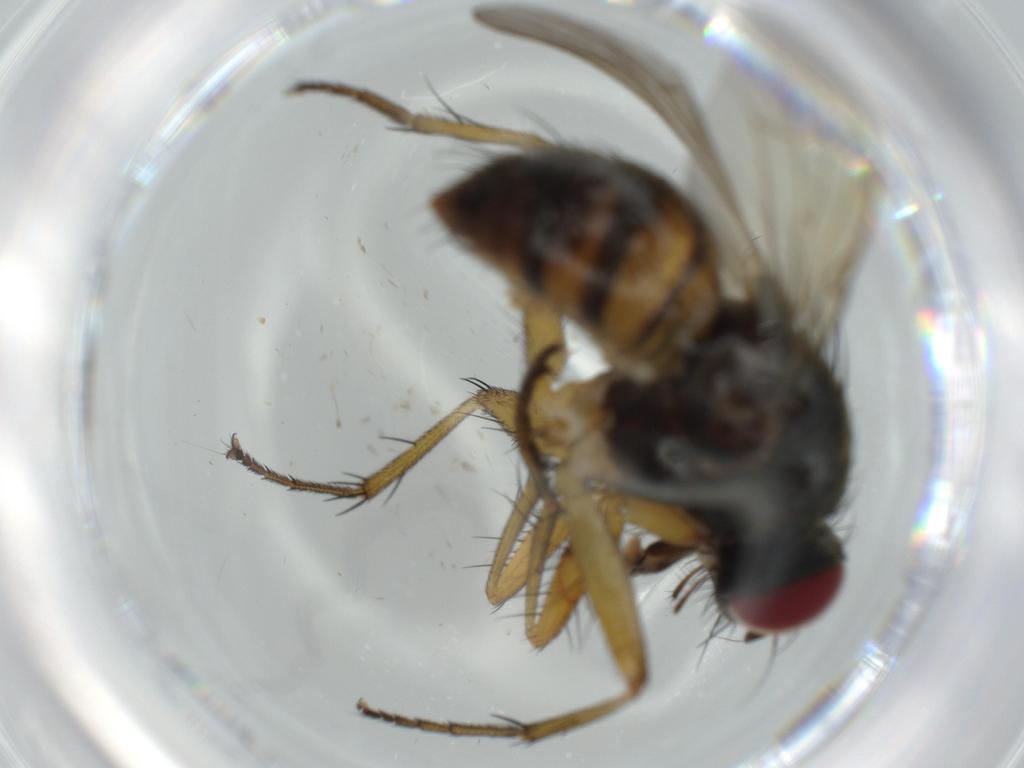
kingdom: Animalia
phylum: Arthropoda
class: Insecta
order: Diptera
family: Muscidae
